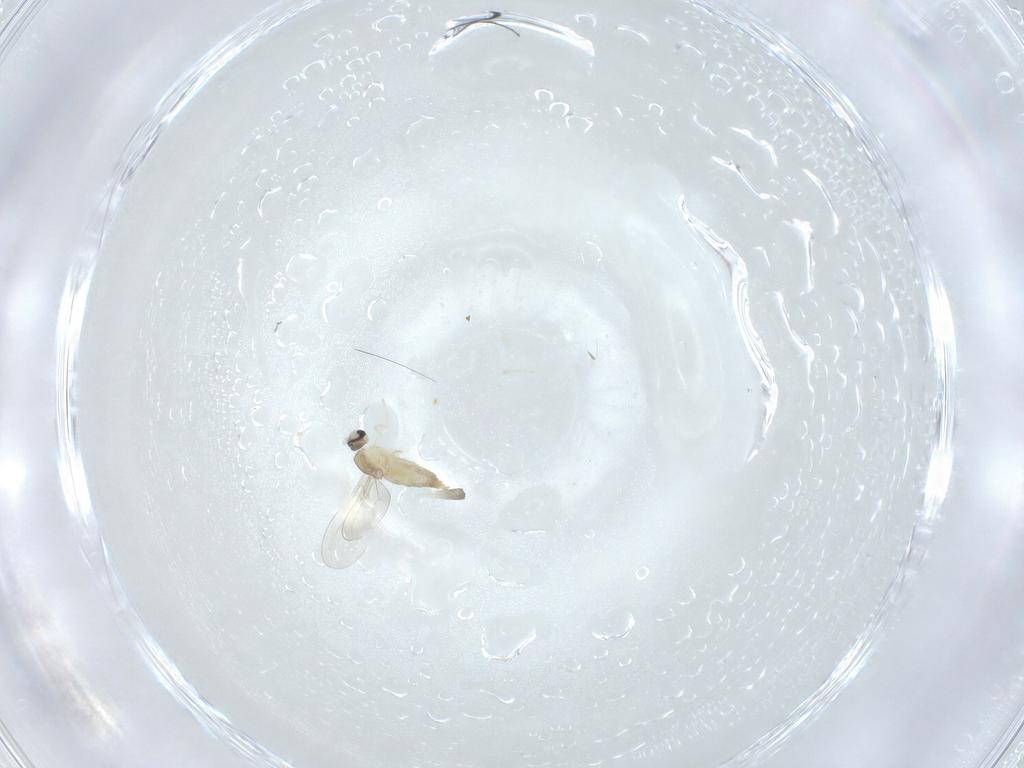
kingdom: Animalia
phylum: Arthropoda
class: Insecta
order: Diptera
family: Cecidomyiidae
